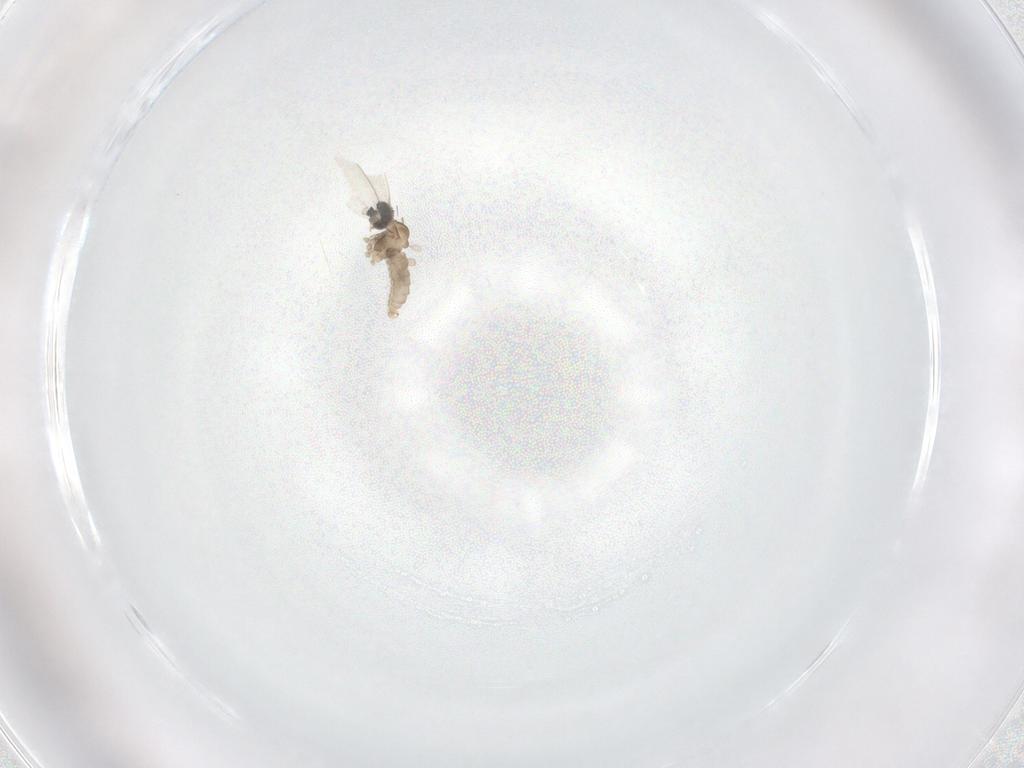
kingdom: Animalia
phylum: Arthropoda
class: Insecta
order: Diptera
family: Cecidomyiidae
